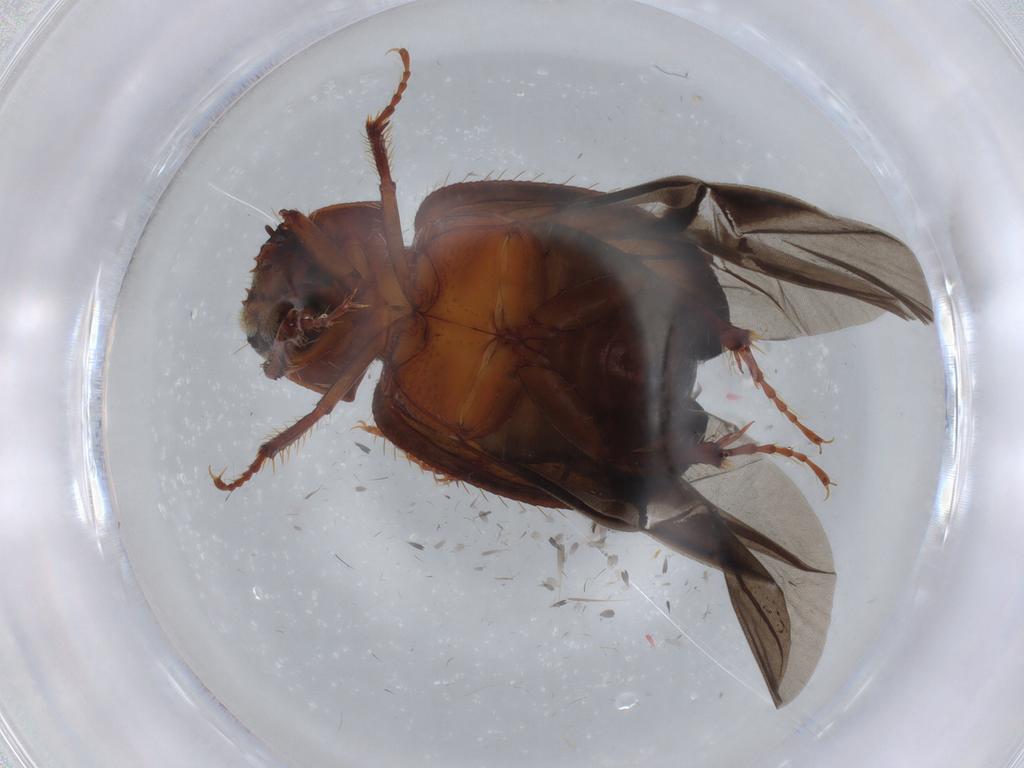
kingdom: Animalia
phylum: Arthropoda
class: Insecta
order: Coleoptera
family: Hybosoridae
